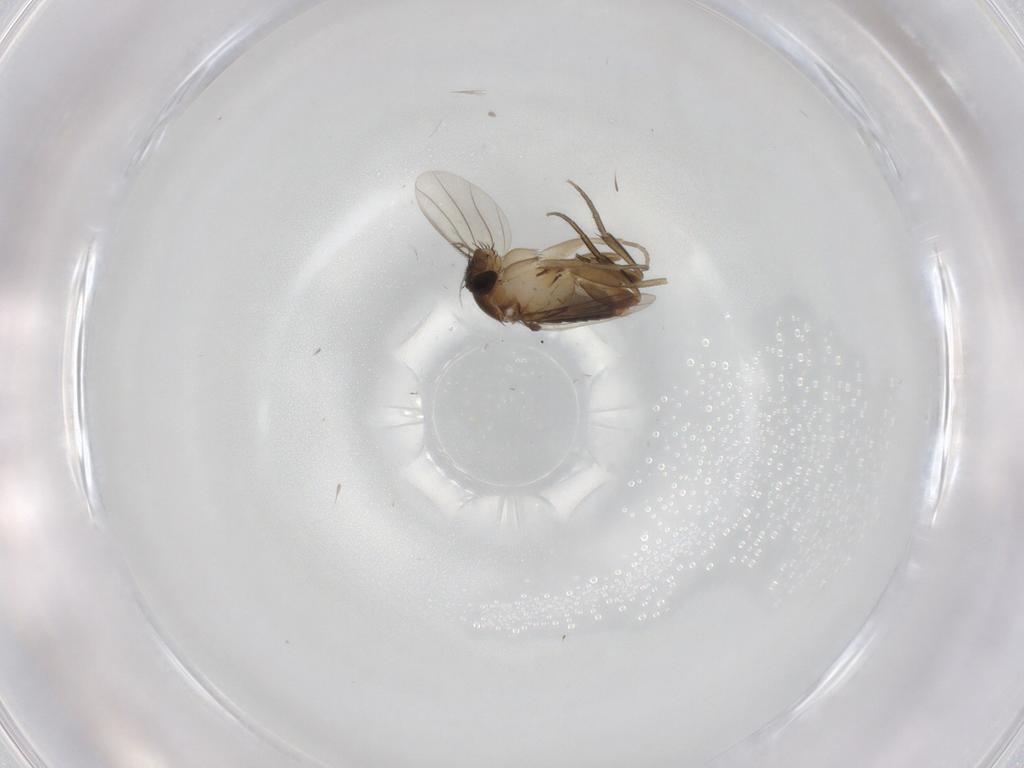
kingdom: Animalia
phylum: Arthropoda
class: Insecta
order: Diptera
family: Phoridae
